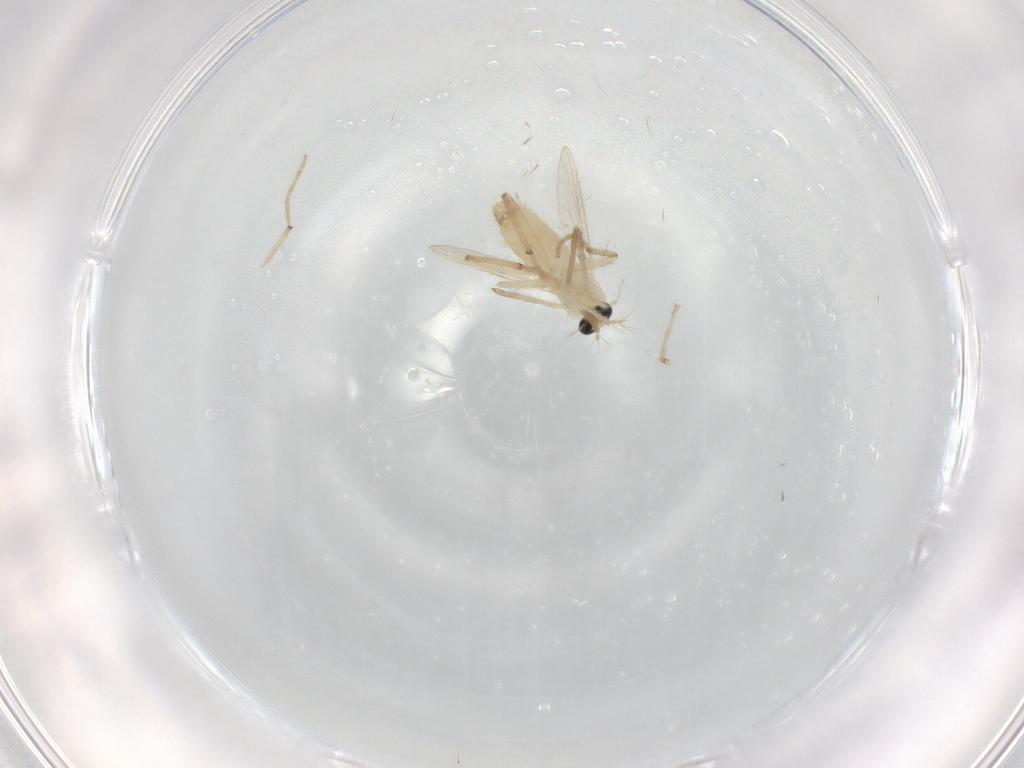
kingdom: Animalia
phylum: Arthropoda
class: Insecta
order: Diptera
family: Chironomidae
